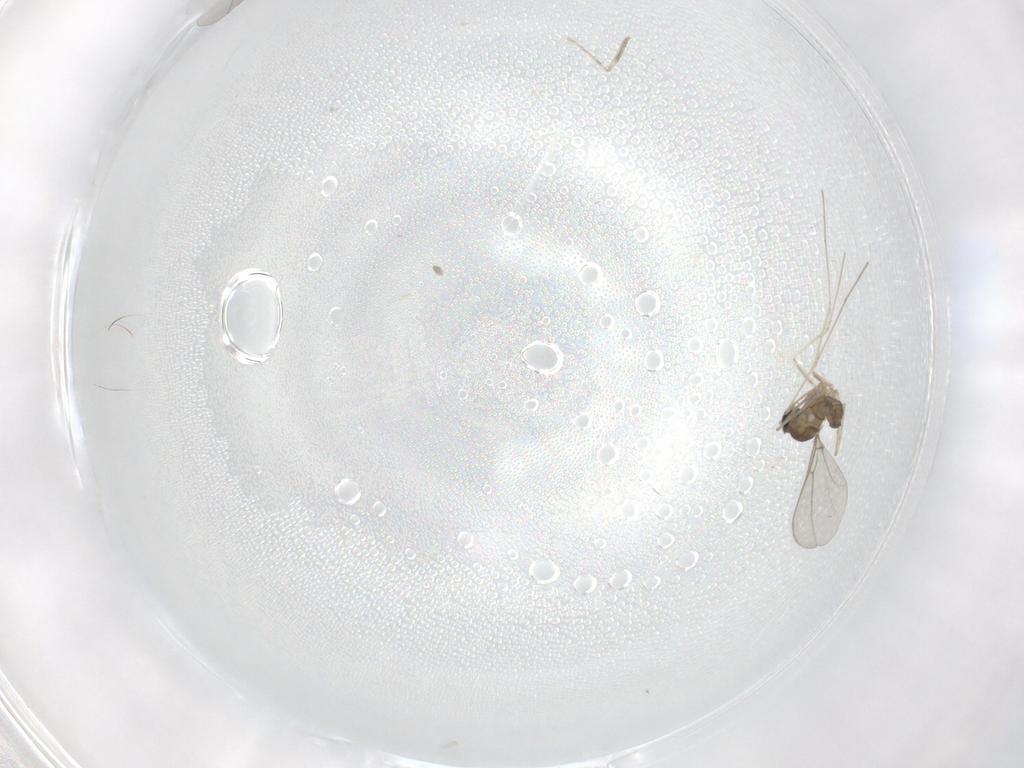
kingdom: Animalia
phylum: Arthropoda
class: Insecta
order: Diptera
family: Cecidomyiidae
